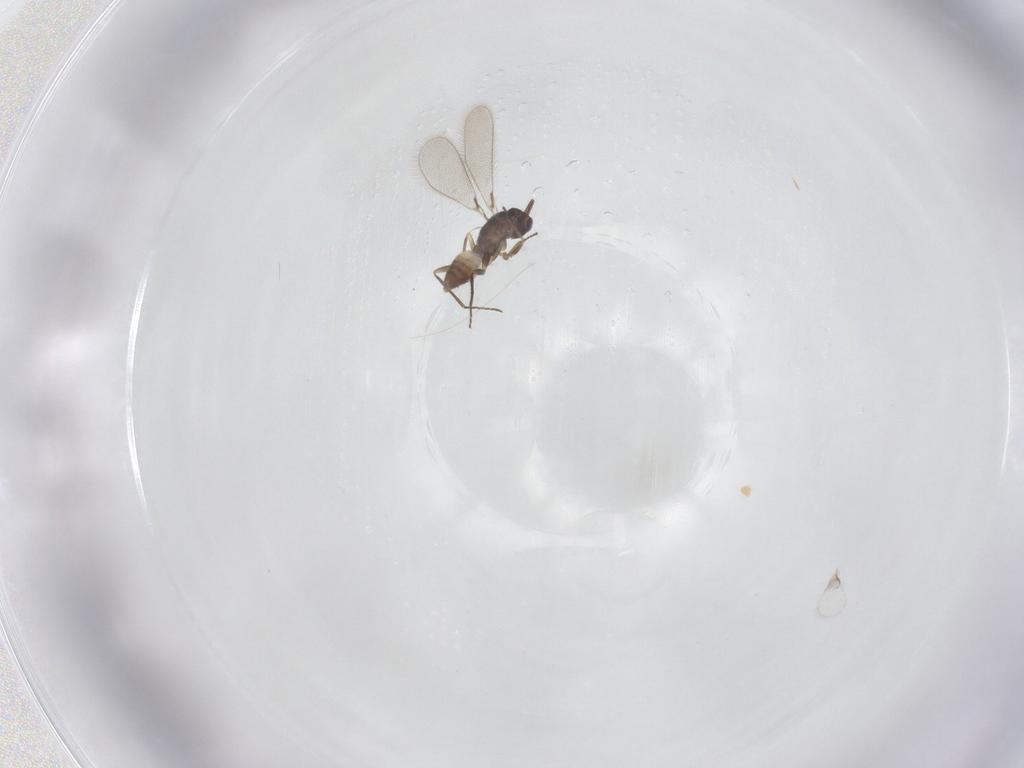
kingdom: Animalia
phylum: Arthropoda
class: Insecta
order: Hymenoptera
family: Mymaridae
